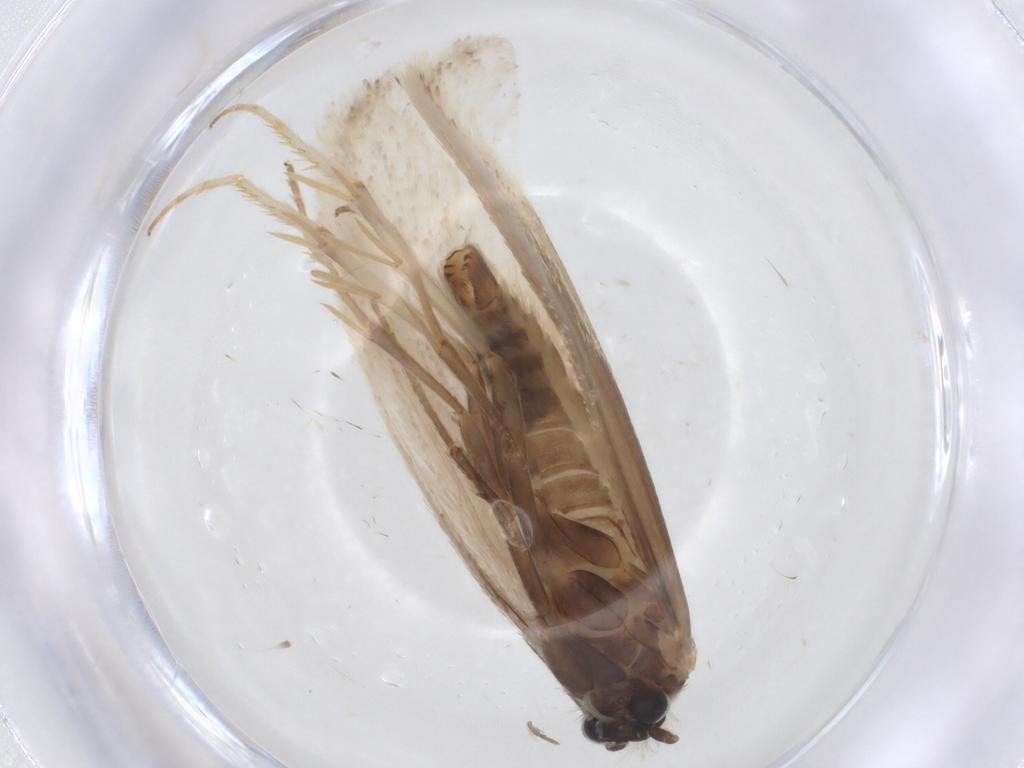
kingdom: Animalia
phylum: Arthropoda
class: Insecta
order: Lepidoptera
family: Tridentaformidae
